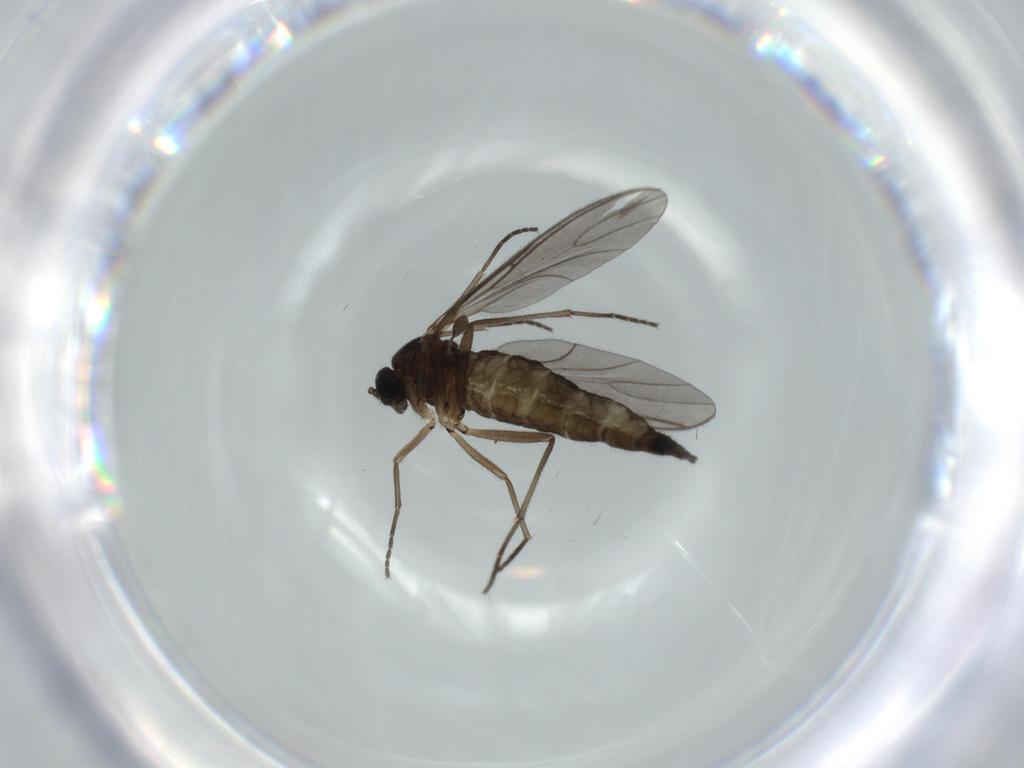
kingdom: Animalia
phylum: Arthropoda
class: Insecta
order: Diptera
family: Sciaridae
